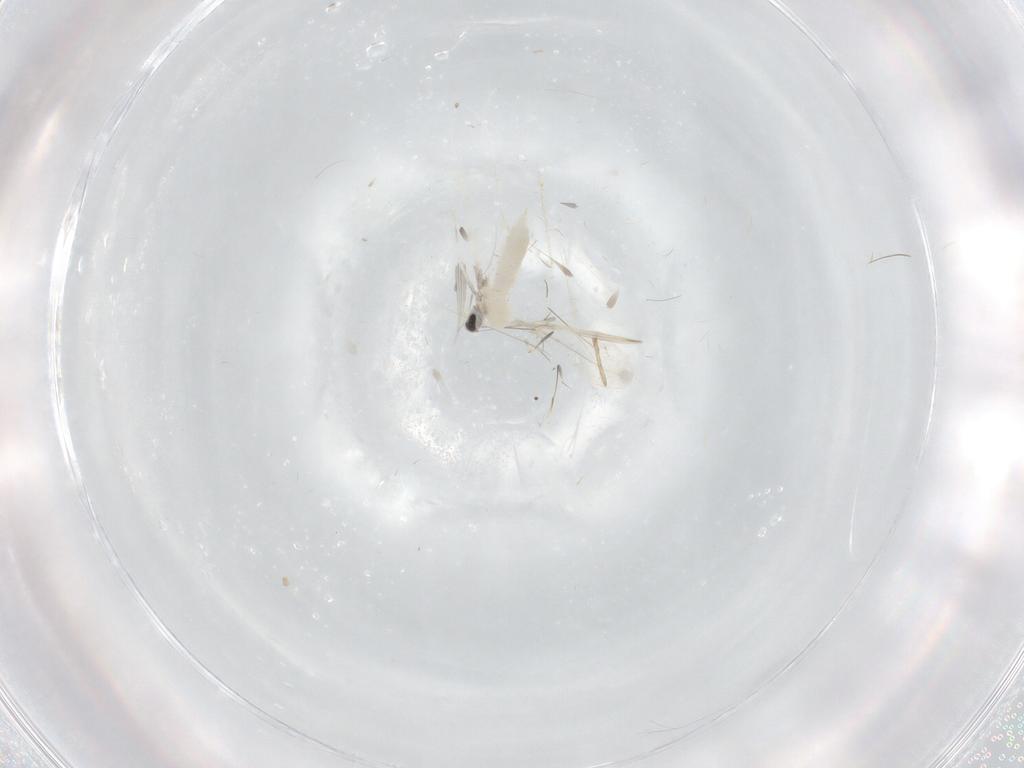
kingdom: Animalia
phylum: Arthropoda
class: Insecta
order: Diptera
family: Cecidomyiidae
